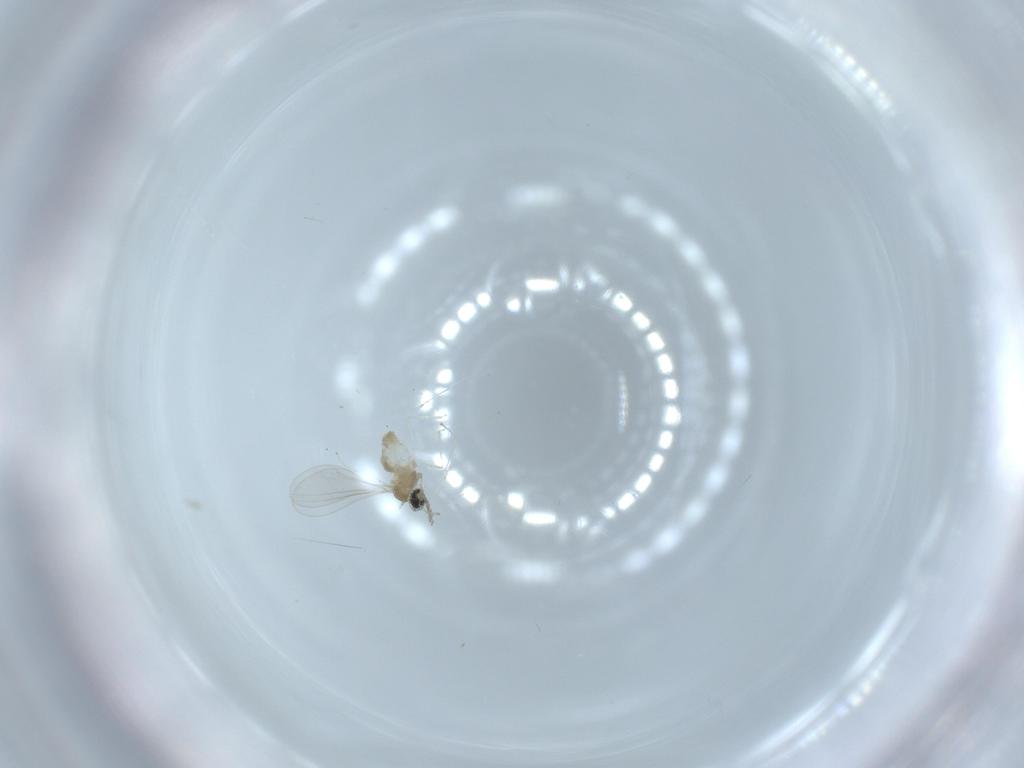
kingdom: Animalia
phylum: Arthropoda
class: Insecta
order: Diptera
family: Cecidomyiidae
